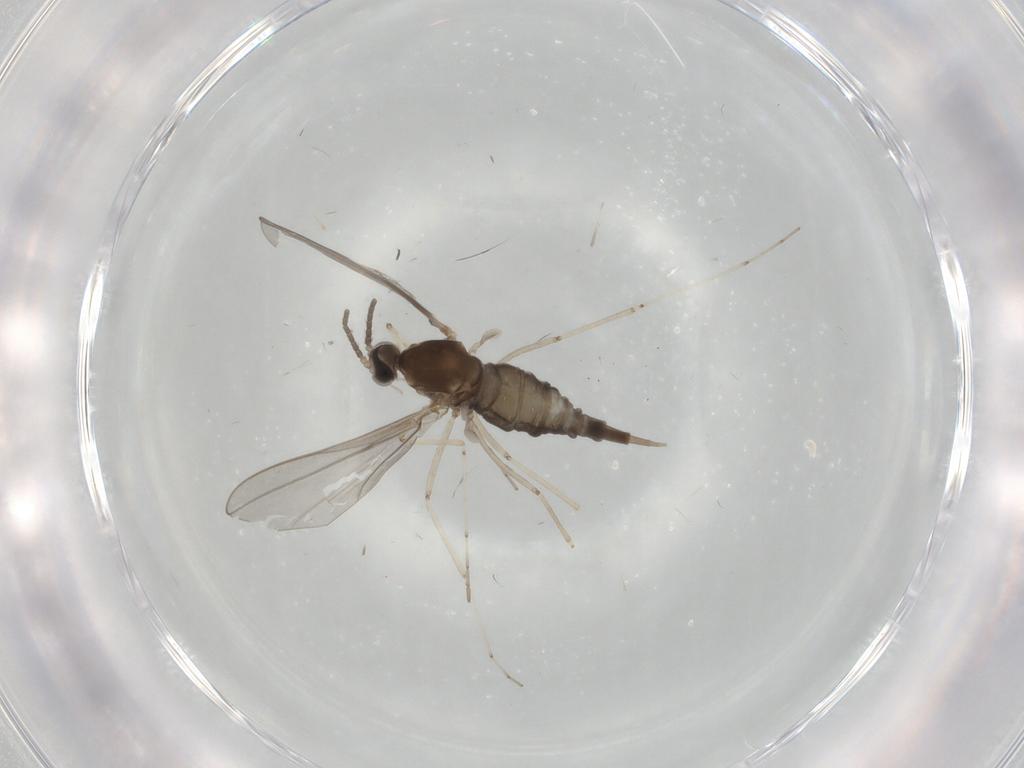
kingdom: Animalia
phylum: Arthropoda
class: Insecta
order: Diptera
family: Cecidomyiidae
